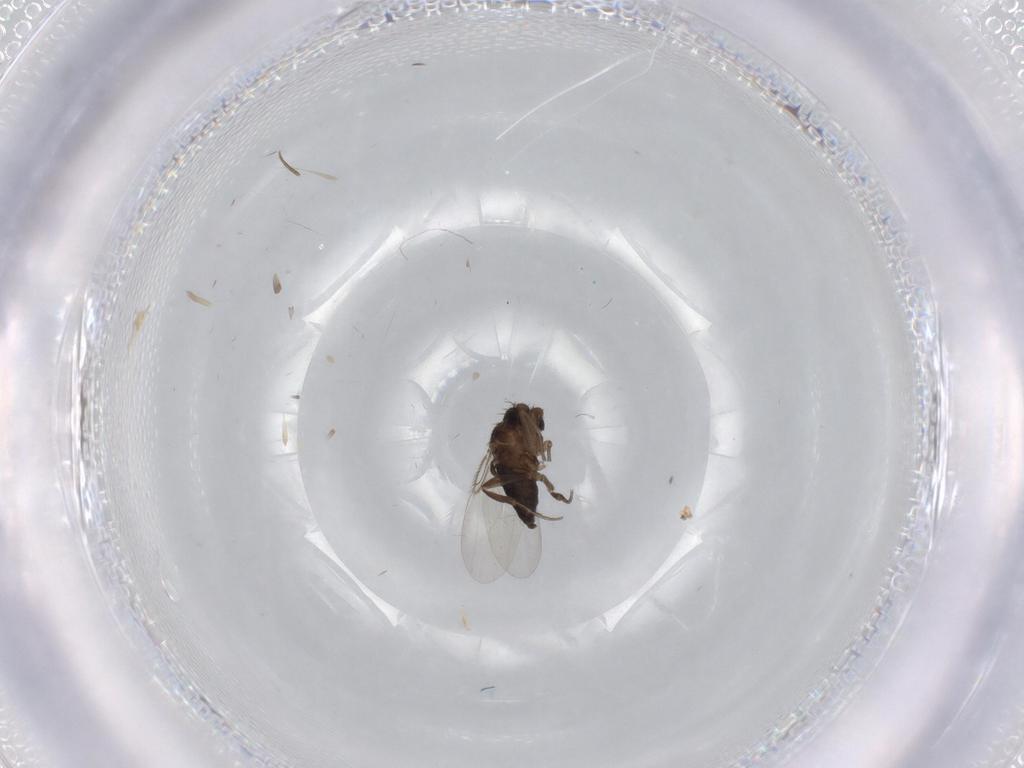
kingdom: Animalia
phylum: Arthropoda
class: Insecta
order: Diptera
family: Phoridae
